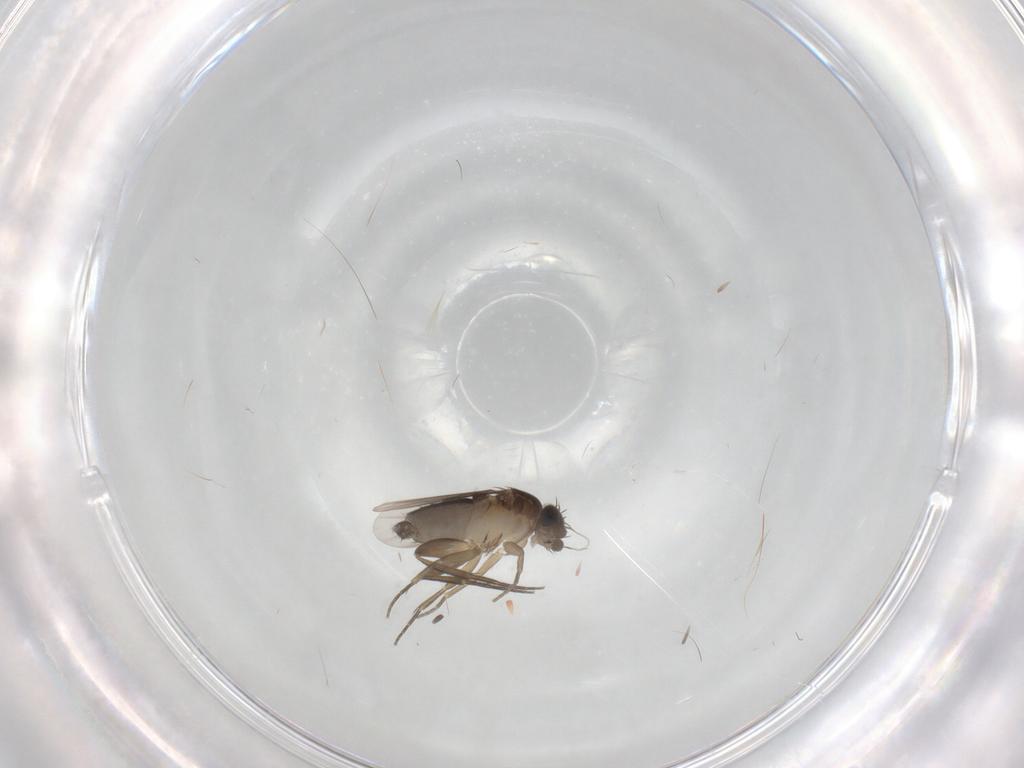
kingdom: Animalia
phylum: Arthropoda
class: Insecta
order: Diptera
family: Phoridae
